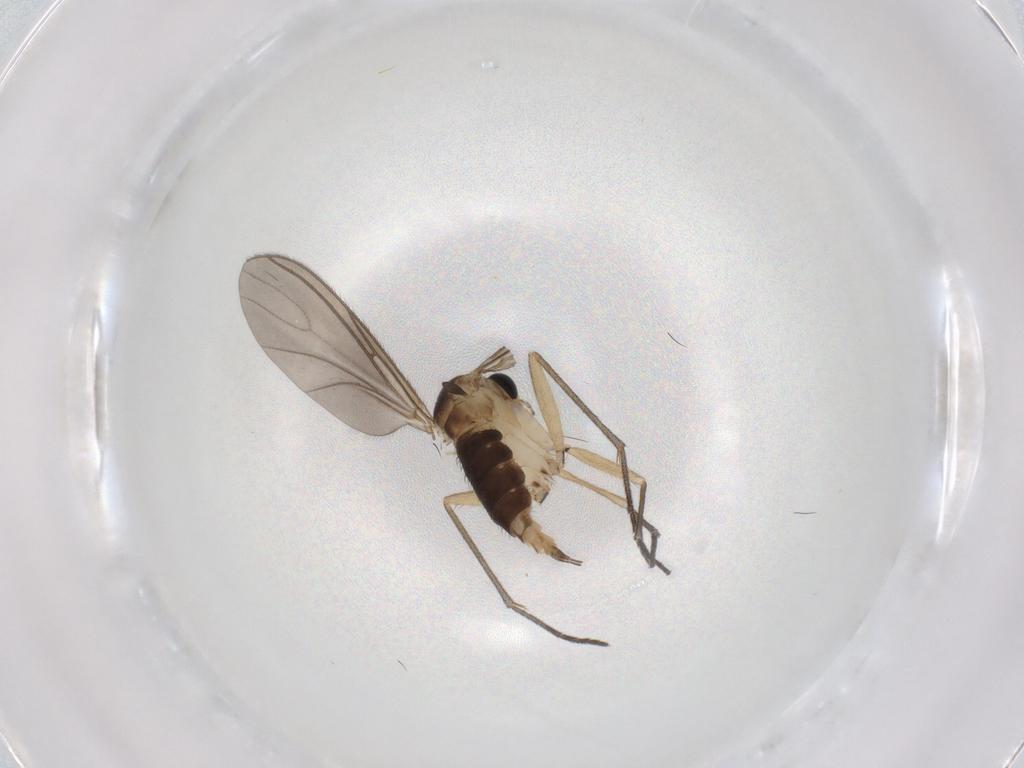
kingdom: Animalia
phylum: Arthropoda
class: Insecta
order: Diptera
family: Sciaridae
